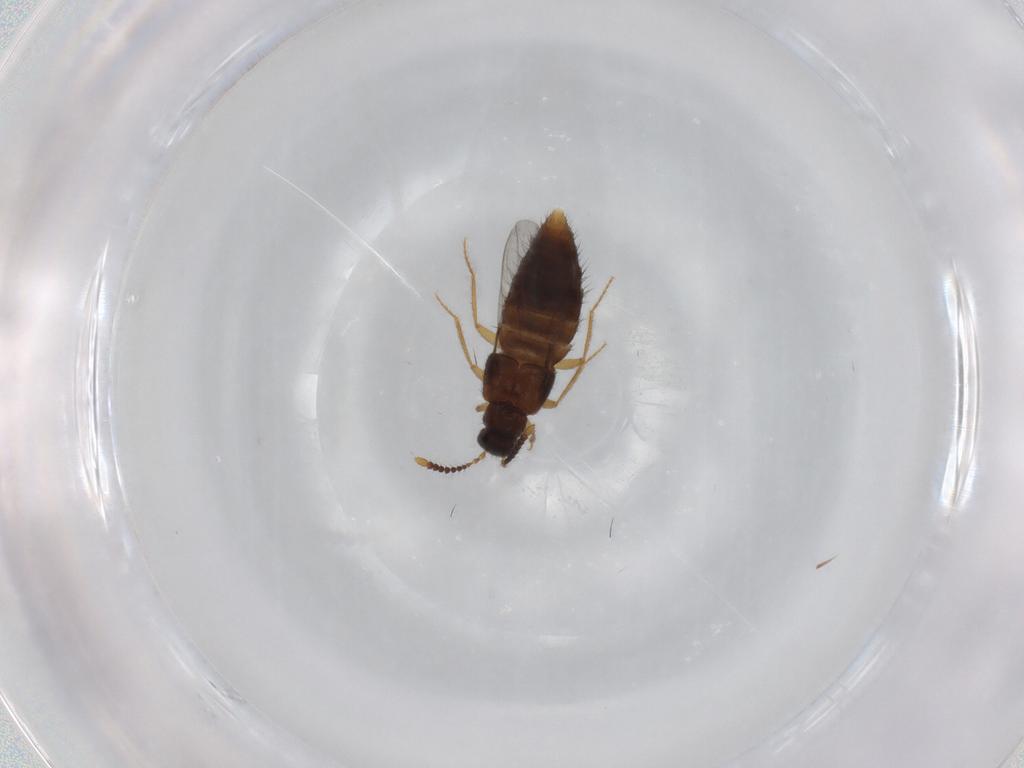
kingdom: Animalia
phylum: Arthropoda
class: Insecta
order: Coleoptera
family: Staphylinidae
